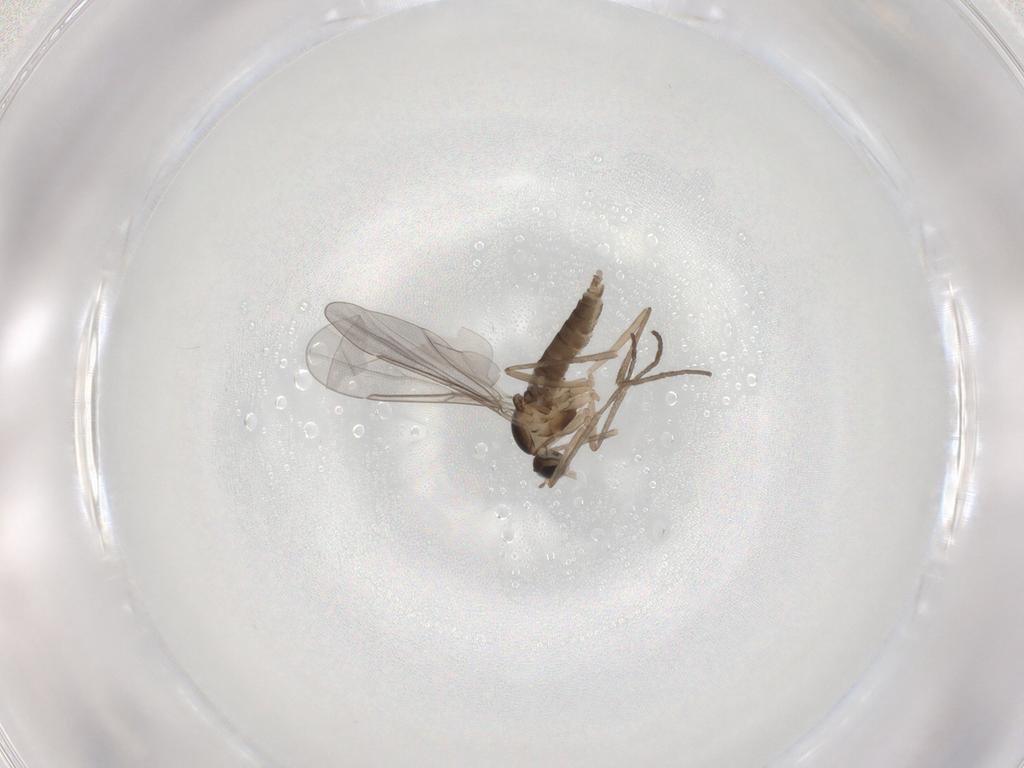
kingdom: Animalia
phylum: Arthropoda
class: Insecta
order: Diptera
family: Cecidomyiidae
